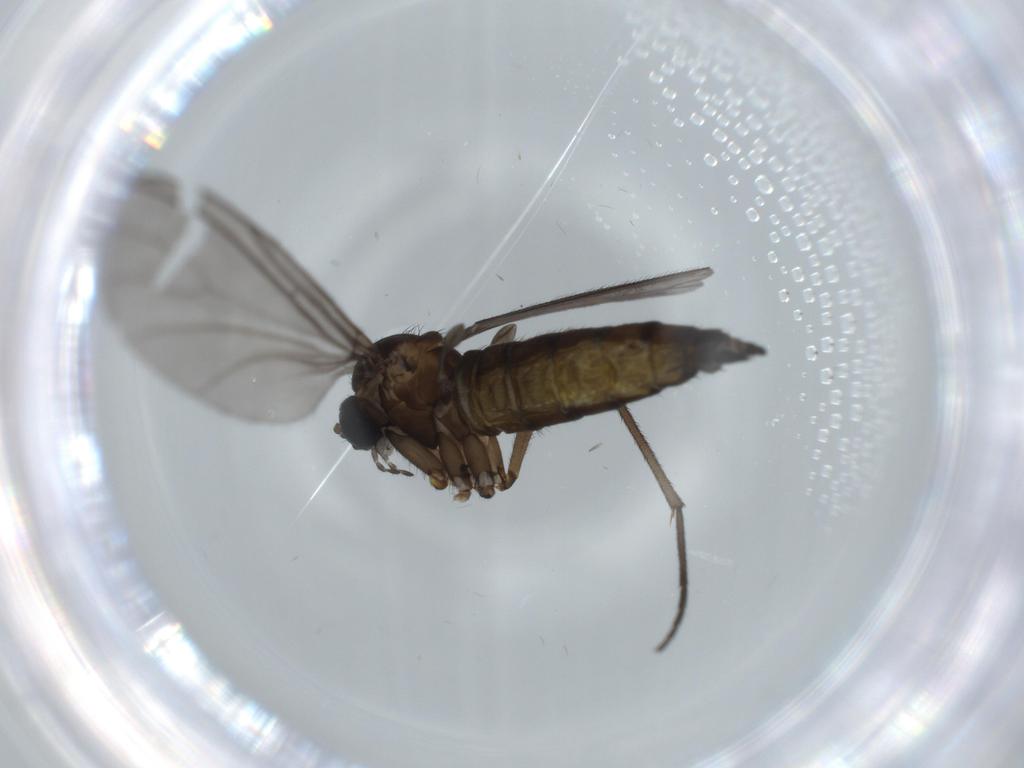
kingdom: Animalia
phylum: Arthropoda
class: Insecta
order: Diptera
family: Sciaridae
